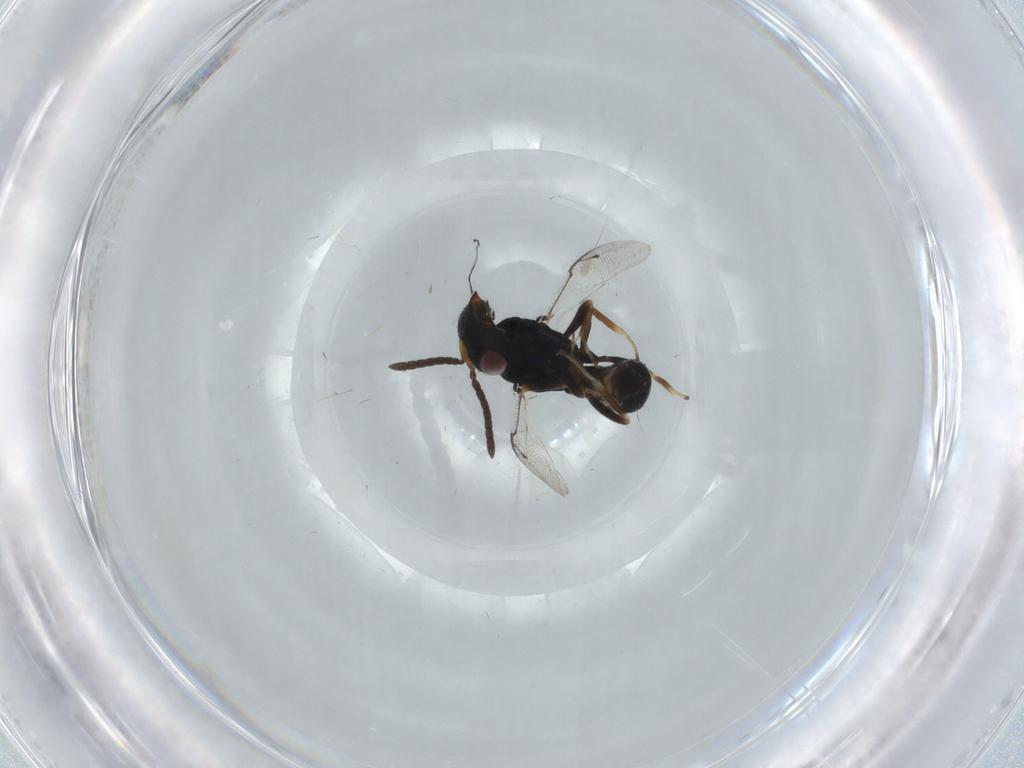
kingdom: Animalia
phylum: Arthropoda
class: Insecta
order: Hymenoptera
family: Pteromalidae
